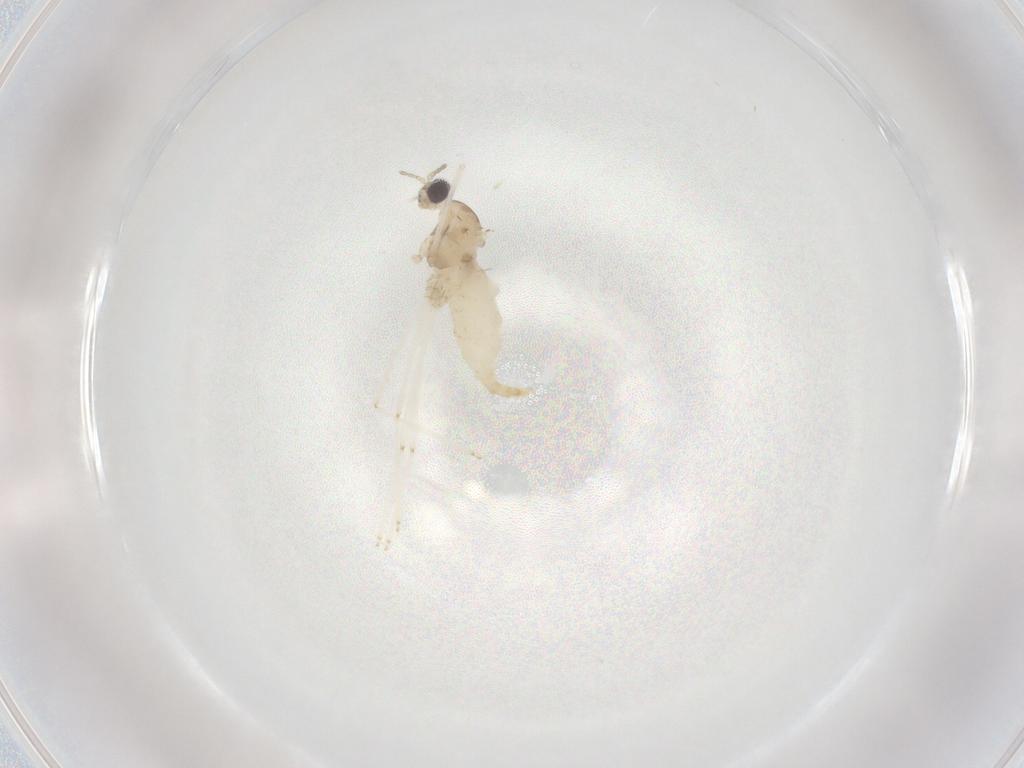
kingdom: Animalia
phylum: Arthropoda
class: Insecta
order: Diptera
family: Cecidomyiidae
